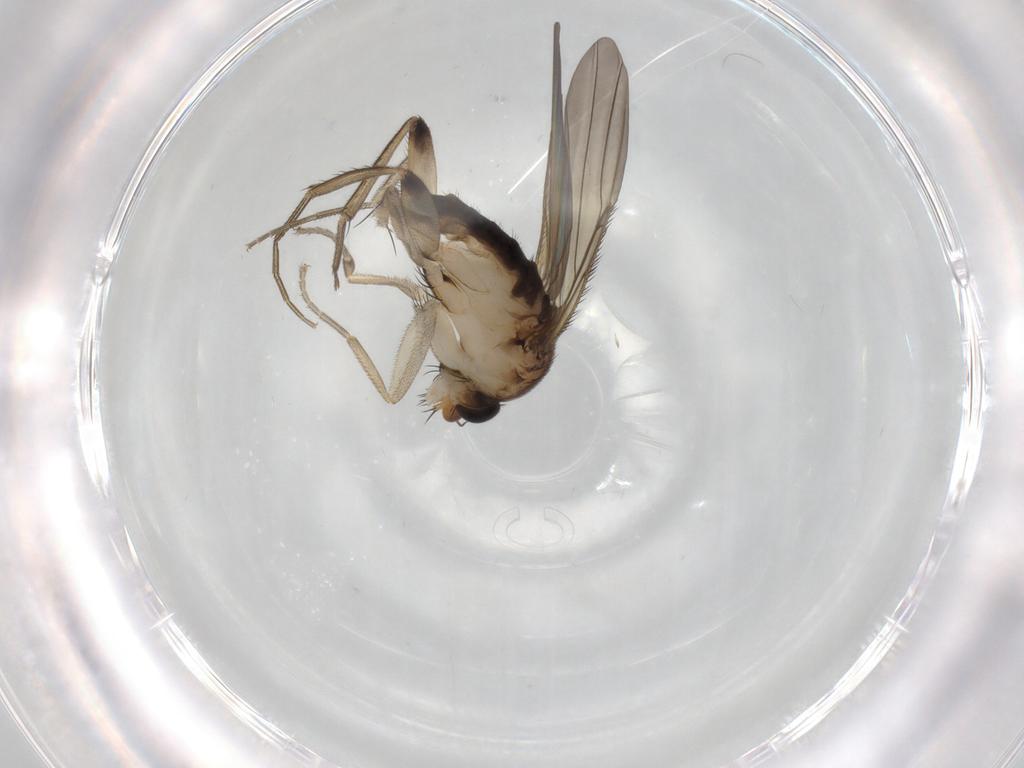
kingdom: Animalia
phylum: Arthropoda
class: Insecta
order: Diptera
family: Phoridae
